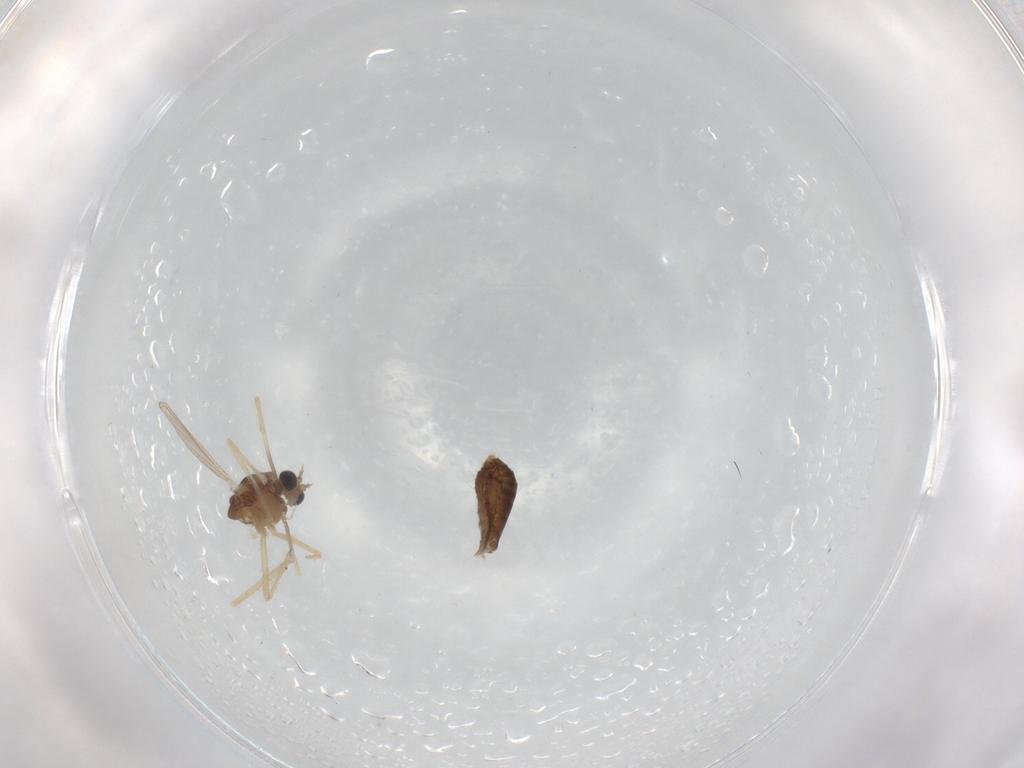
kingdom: Animalia
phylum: Arthropoda
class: Insecta
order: Diptera
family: Chironomidae
